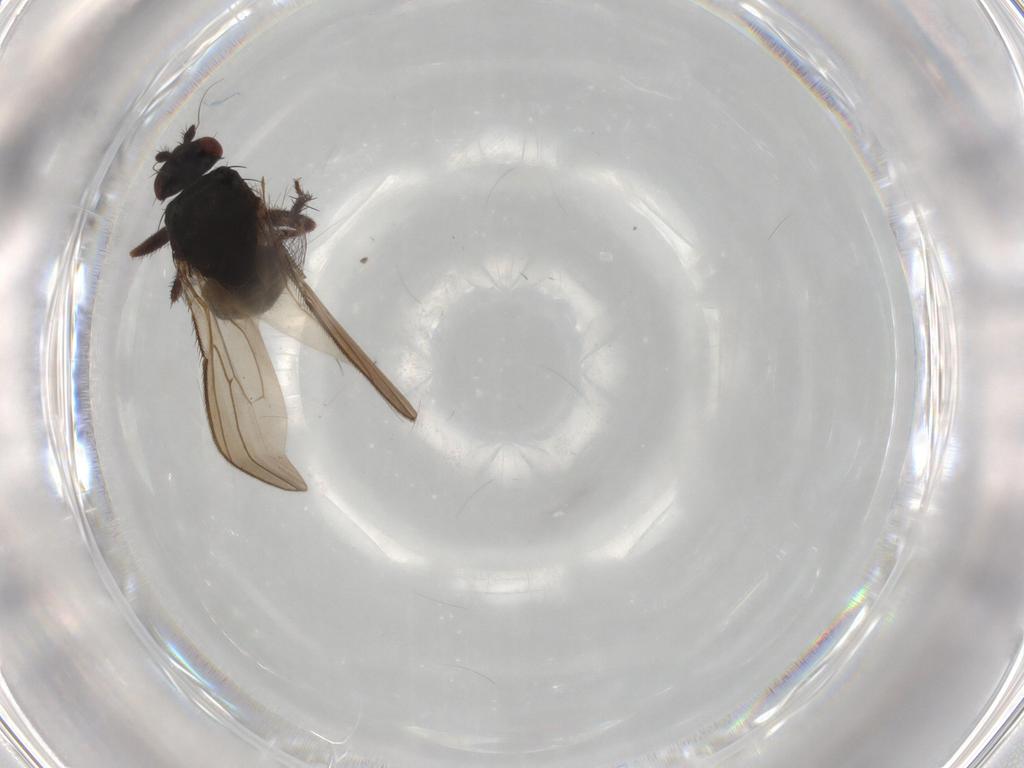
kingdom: Animalia
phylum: Arthropoda
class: Insecta
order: Diptera
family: Sphaeroceridae
